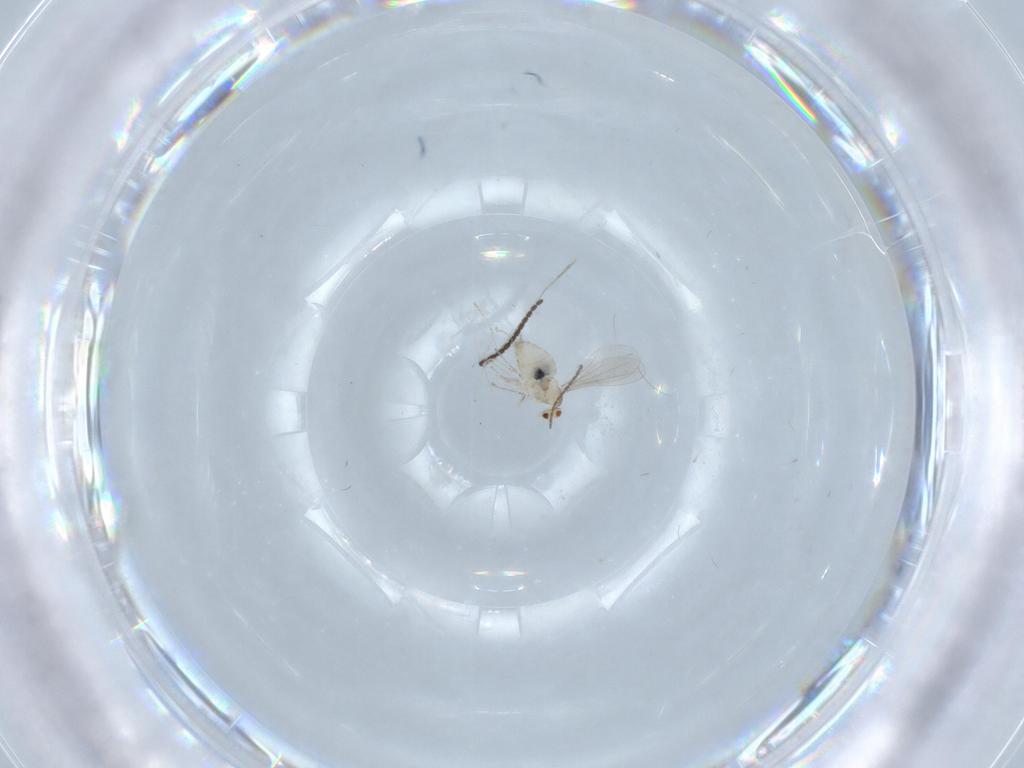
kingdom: Animalia
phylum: Arthropoda
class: Insecta
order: Diptera
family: Cecidomyiidae
